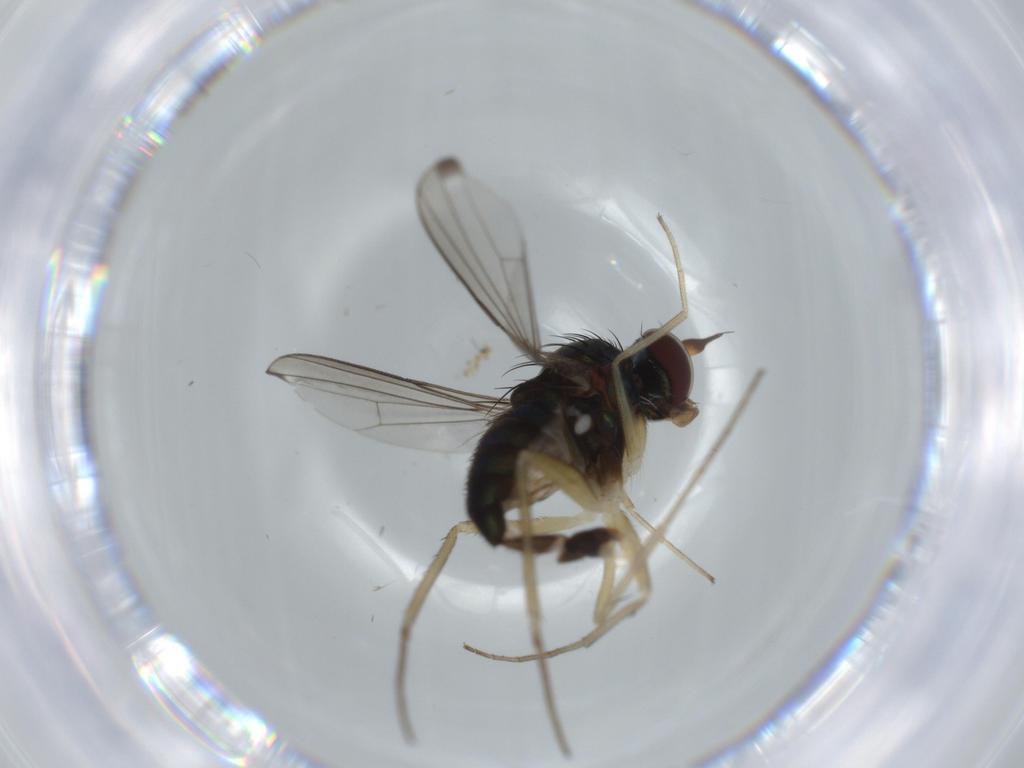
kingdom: Animalia
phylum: Arthropoda
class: Insecta
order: Diptera
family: Dolichopodidae
